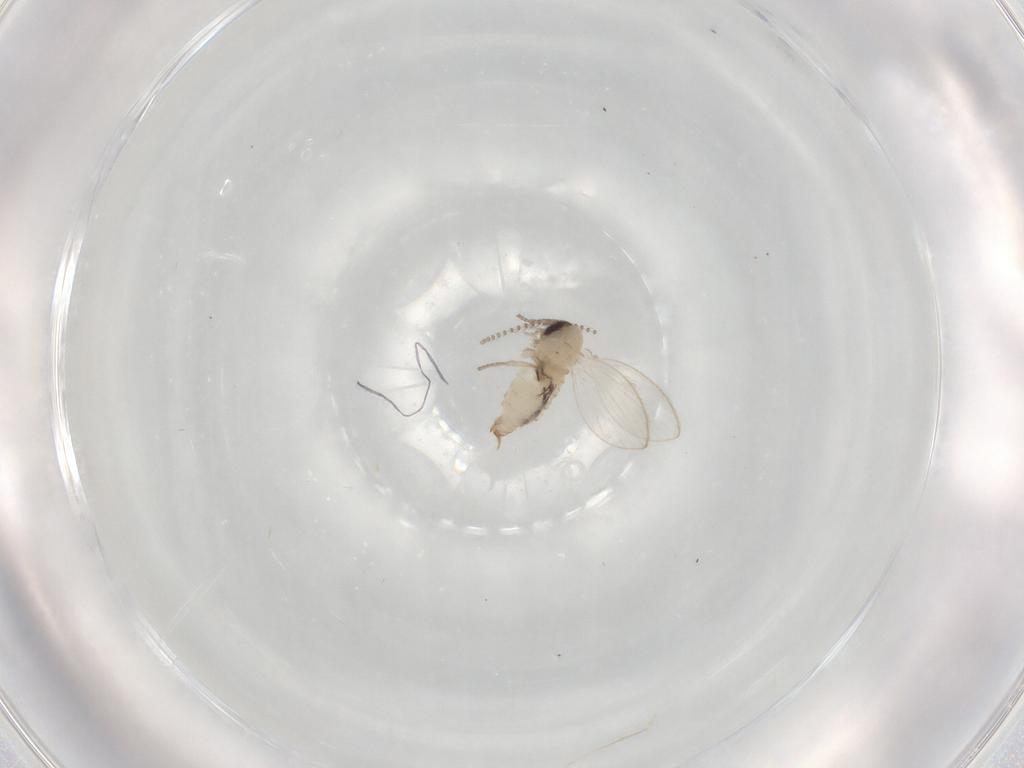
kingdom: Animalia
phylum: Arthropoda
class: Insecta
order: Diptera
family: Psychodidae
